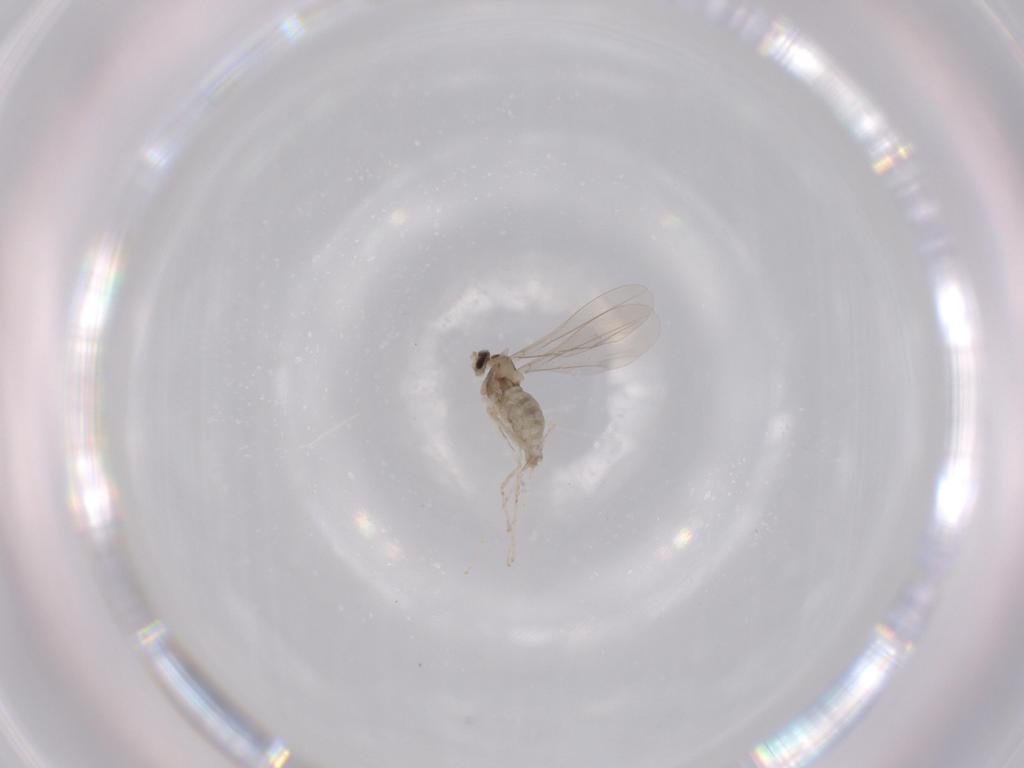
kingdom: Animalia
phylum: Arthropoda
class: Insecta
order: Diptera
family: Cecidomyiidae
